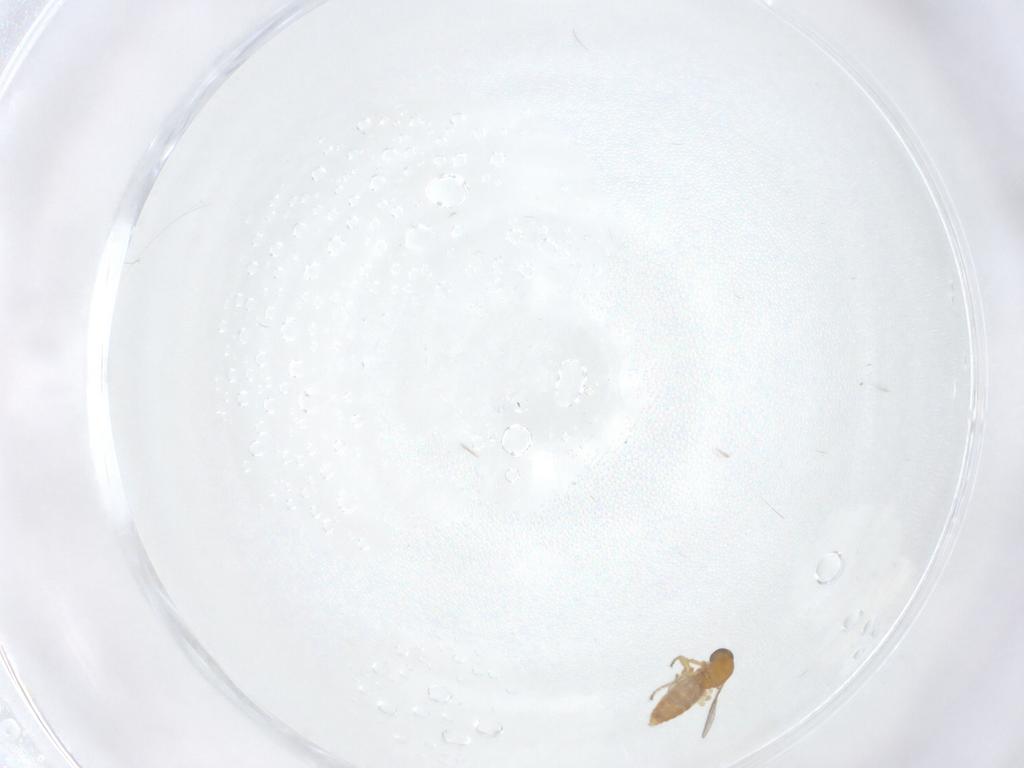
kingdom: Animalia
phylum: Arthropoda
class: Insecta
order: Diptera
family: Ceratopogonidae
